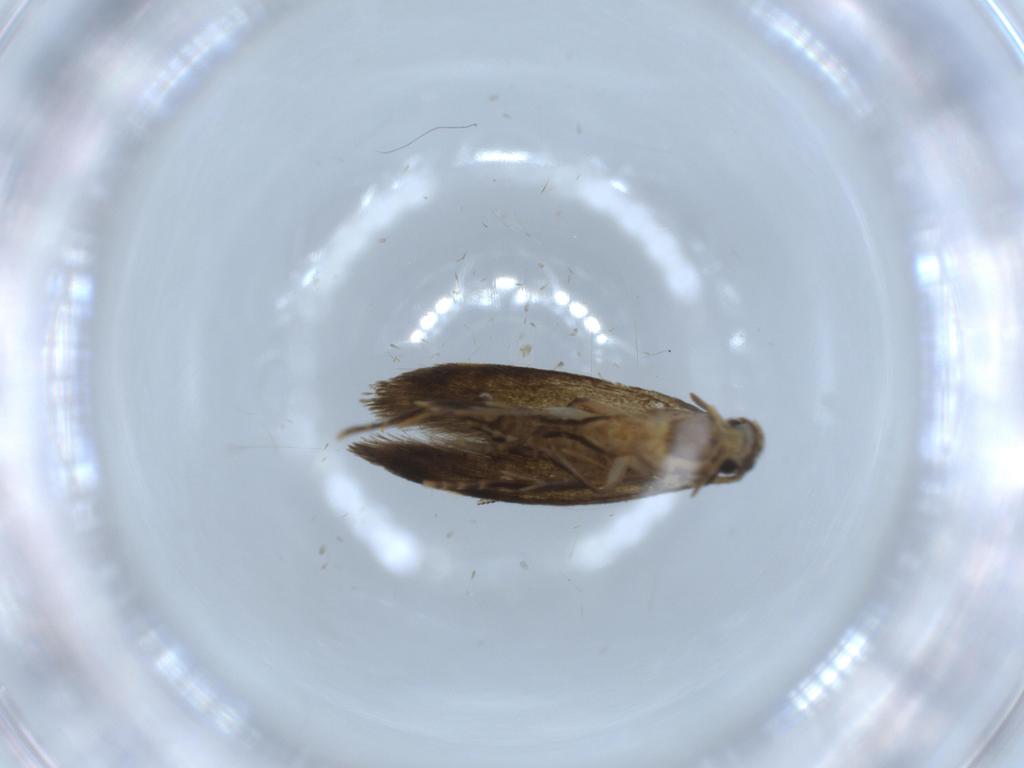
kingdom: Animalia
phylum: Arthropoda
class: Insecta
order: Lepidoptera
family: Tineidae
